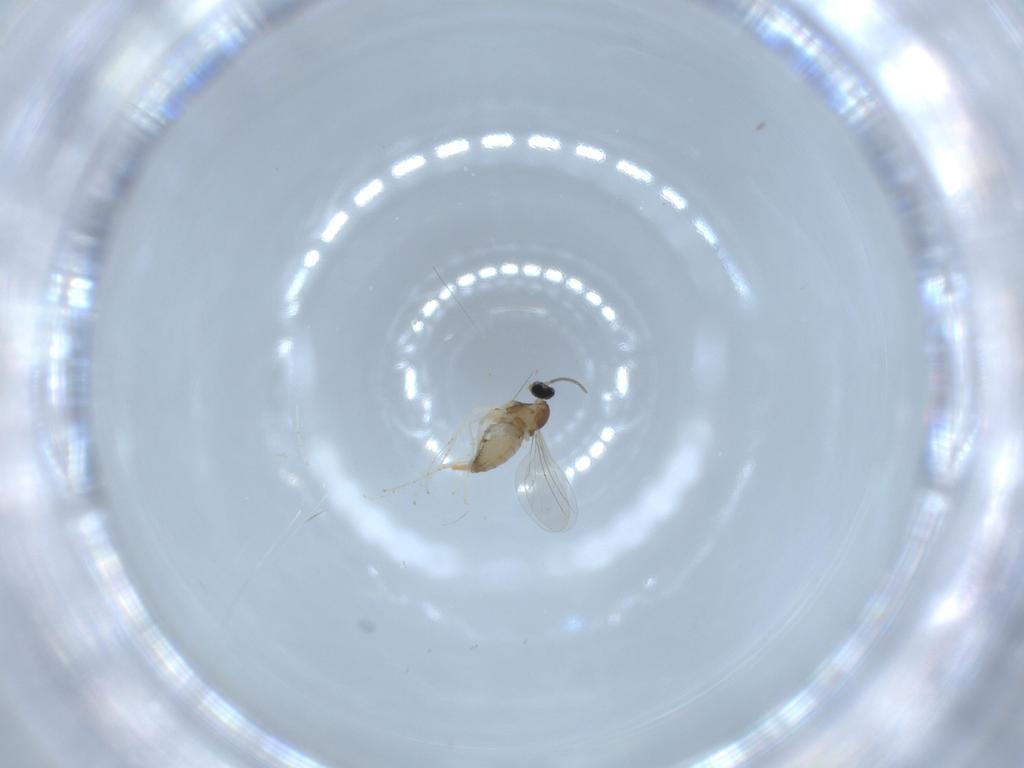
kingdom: Animalia
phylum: Arthropoda
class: Insecta
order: Diptera
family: Cecidomyiidae
